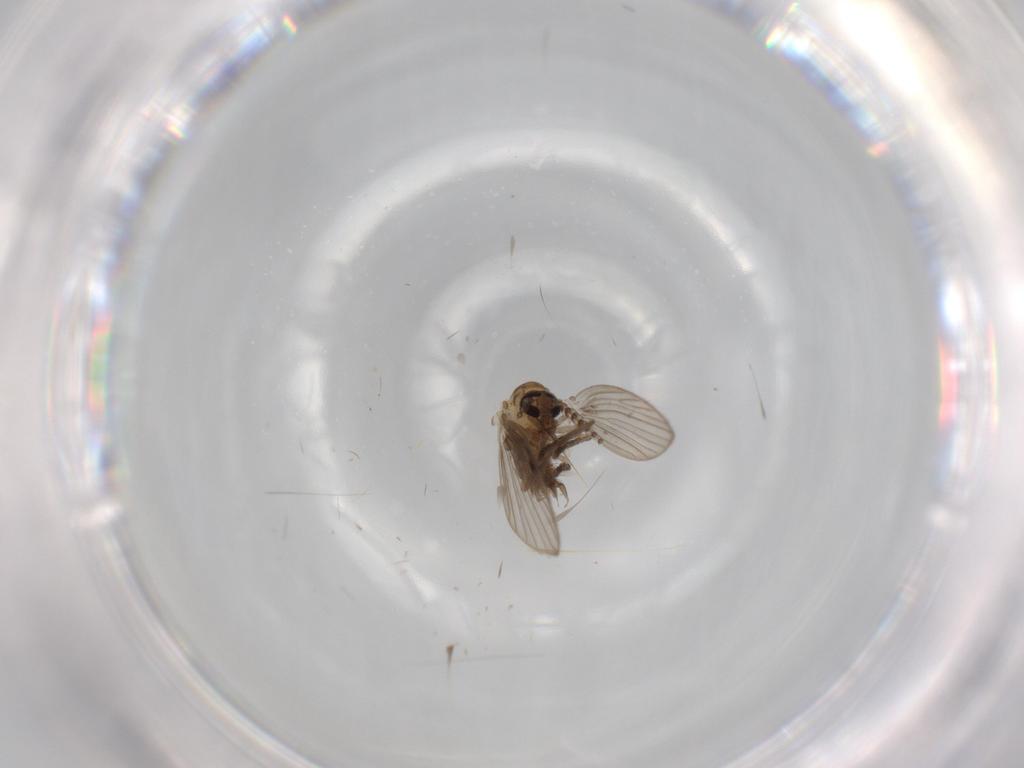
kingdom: Animalia
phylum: Arthropoda
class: Insecta
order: Diptera
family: Psychodidae
